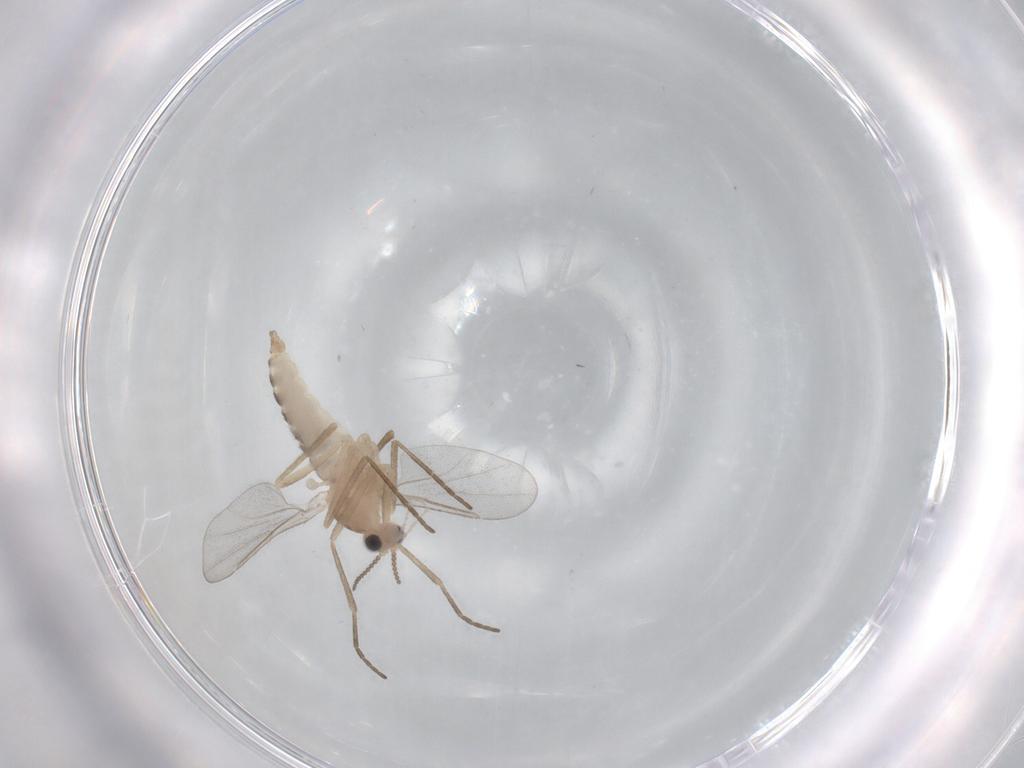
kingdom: Animalia
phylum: Arthropoda
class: Insecta
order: Diptera
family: Cecidomyiidae
